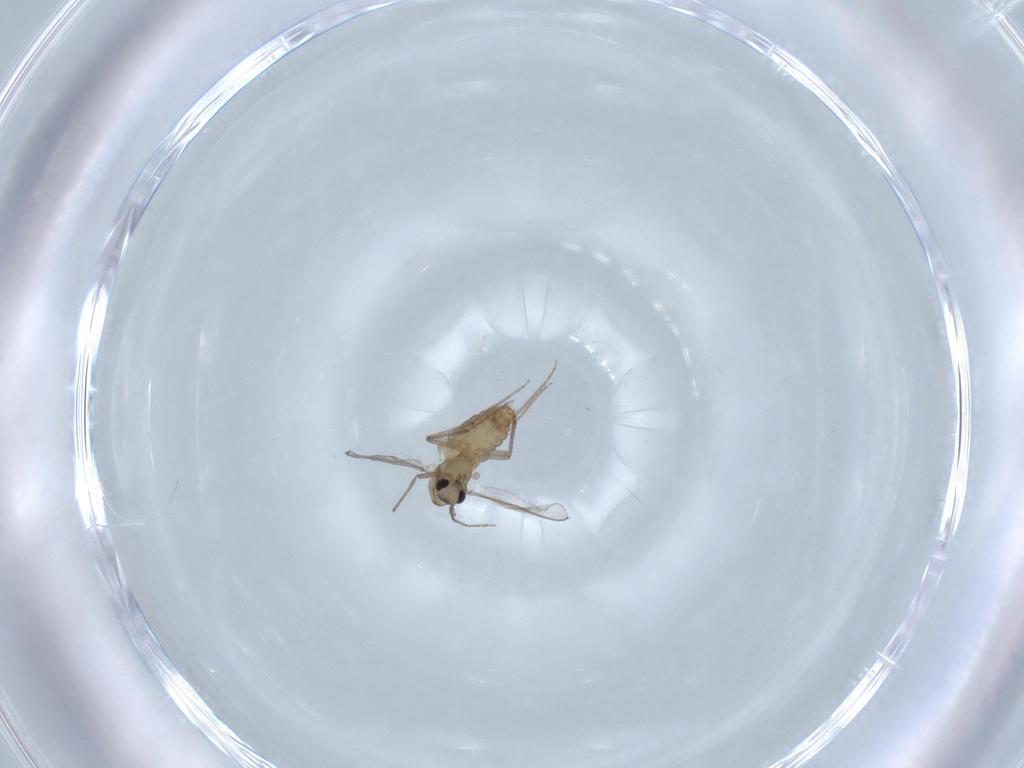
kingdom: Animalia
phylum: Arthropoda
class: Insecta
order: Diptera
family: Chironomidae
